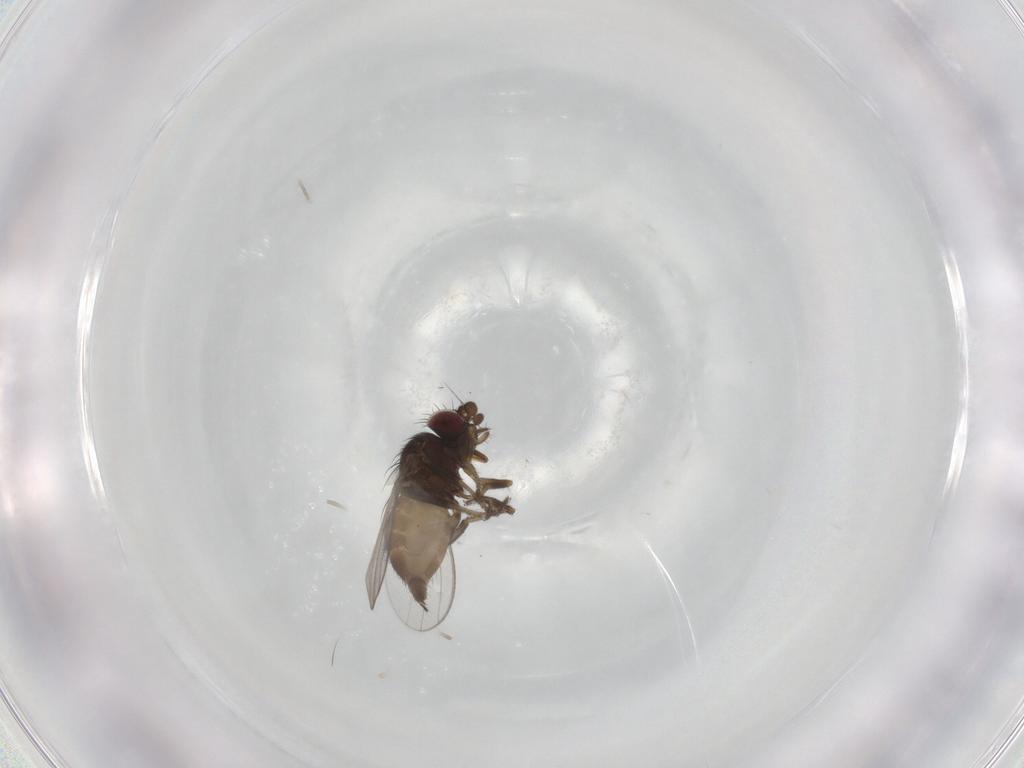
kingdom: Animalia
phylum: Arthropoda
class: Insecta
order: Diptera
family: Milichiidae
